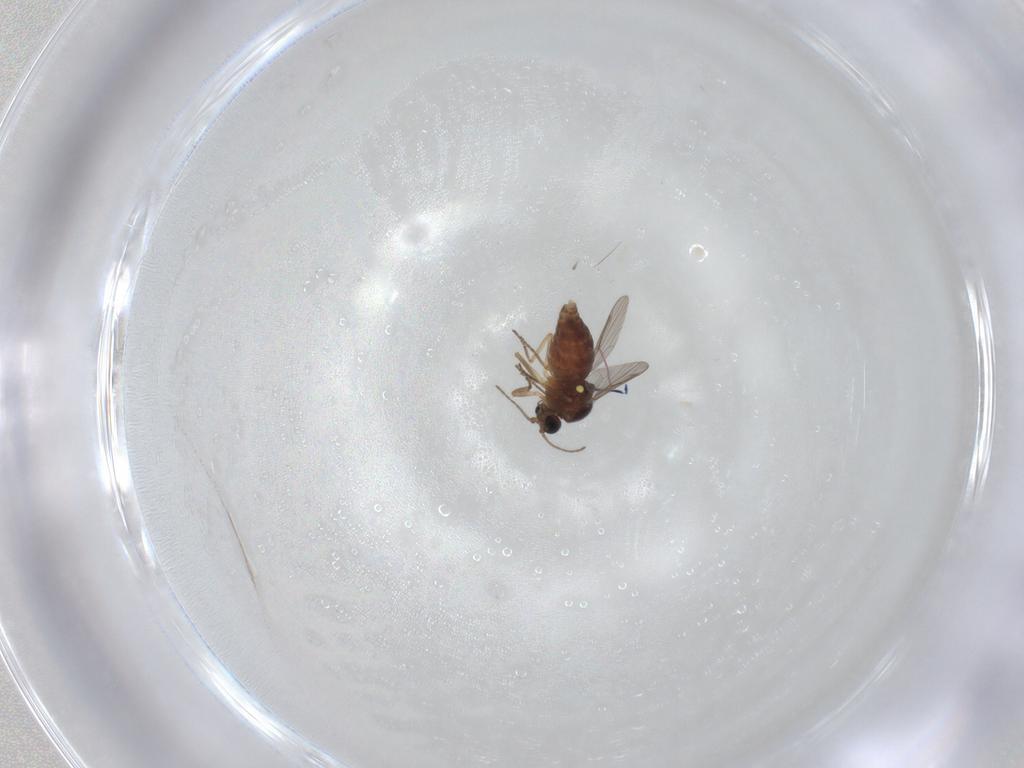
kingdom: Animalia
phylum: Arthropoda
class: Insecta
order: Diptera
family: Ceratopogonidae
